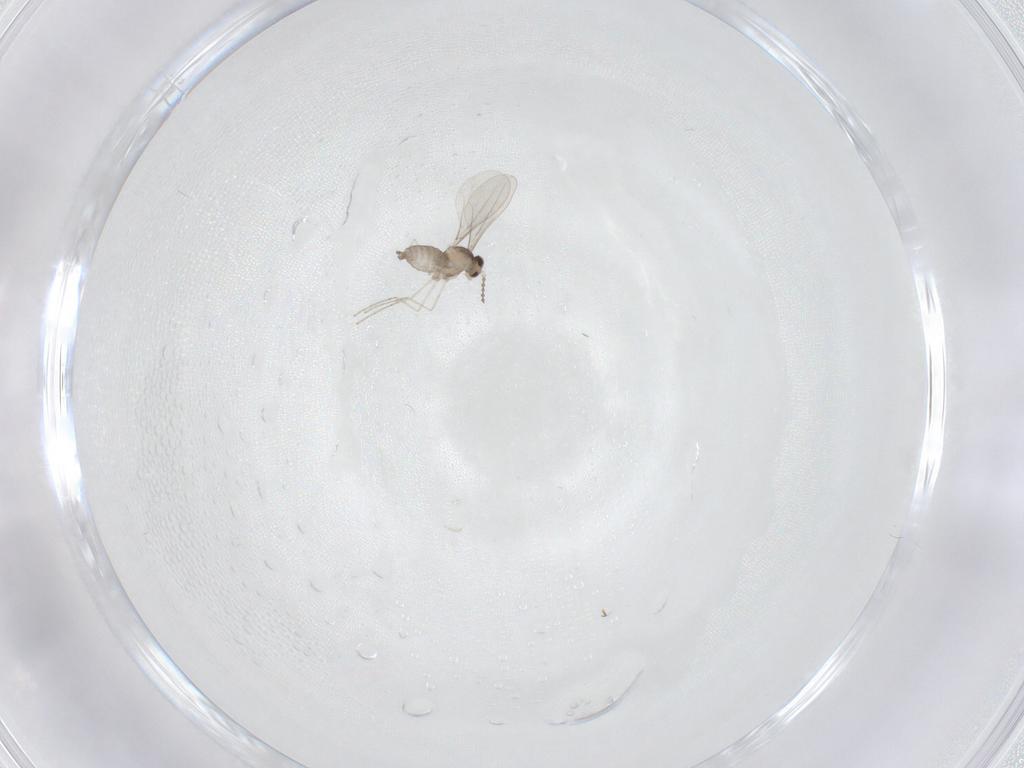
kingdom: Animalia
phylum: Arthropoda
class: Insecta
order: Diptera
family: Cecidomyiidae
